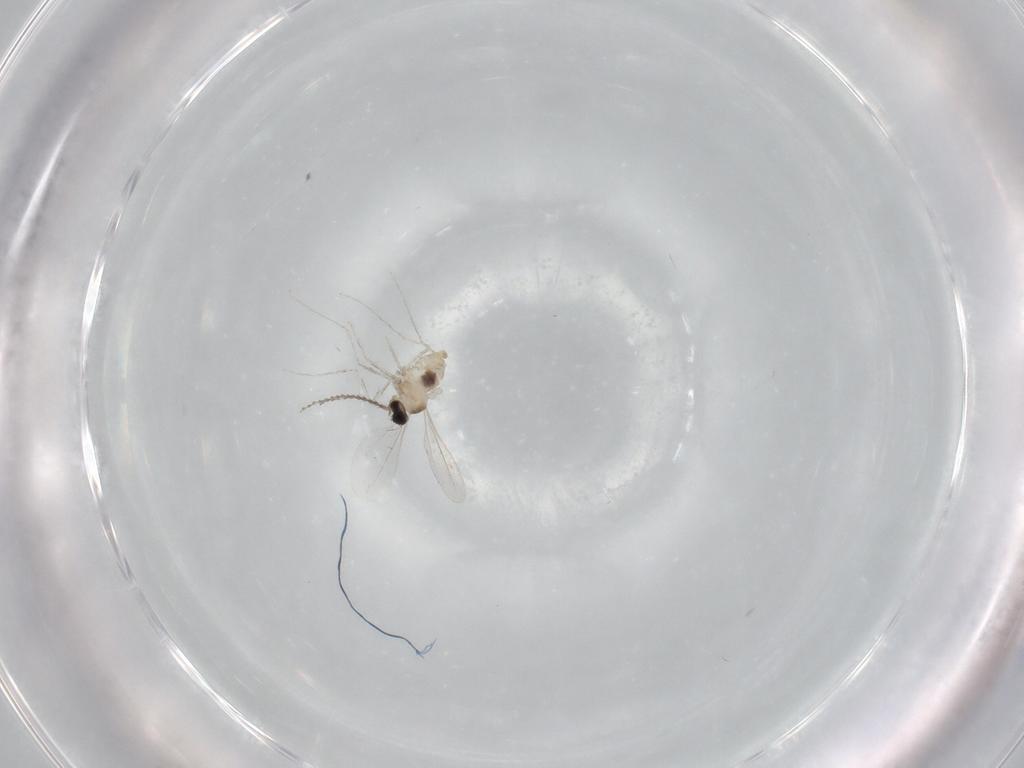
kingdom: Animalia
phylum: Arthropoda
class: Insecta
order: Diptera
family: Cecidomyiidae
